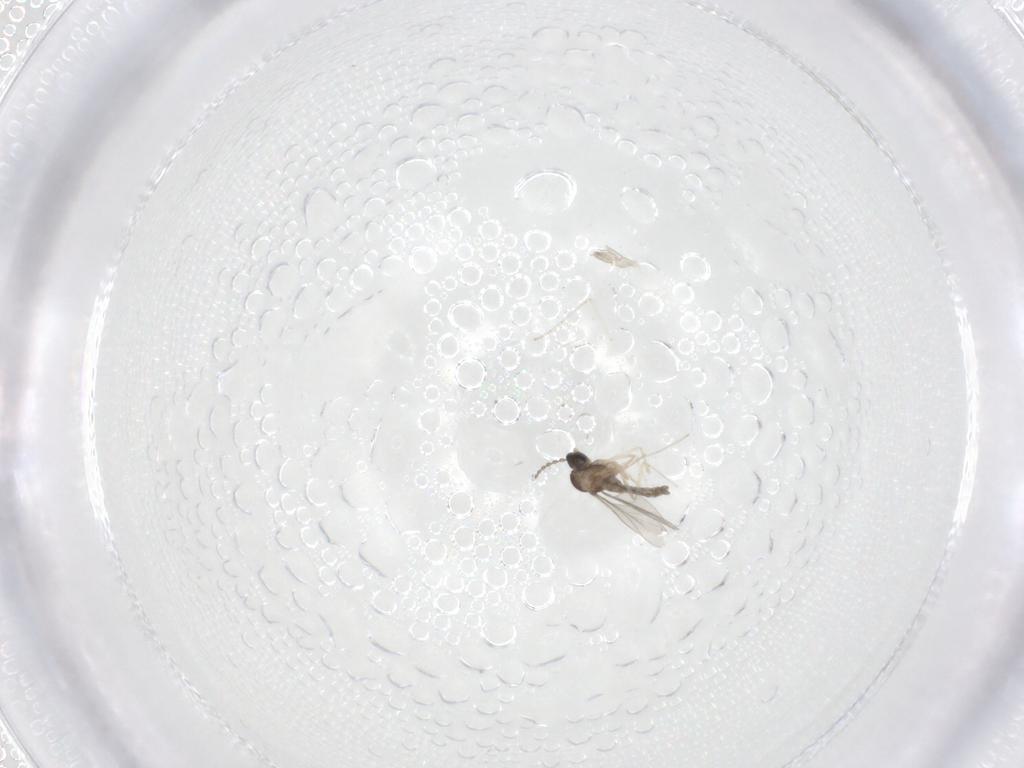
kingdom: Animalia
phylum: Arthropoda
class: Insecta
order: Diptera
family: Cecidomyiidae
